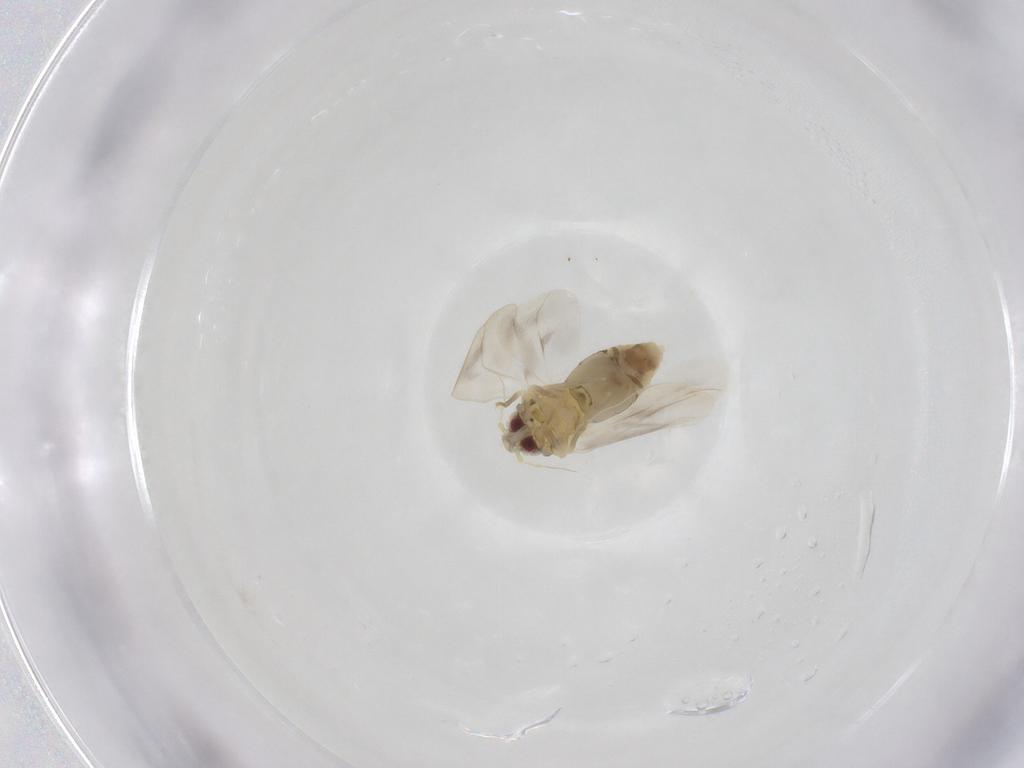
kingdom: Animalia
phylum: Arthropoda
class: Insecta
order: Hemiptera
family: Aleyrodidae
